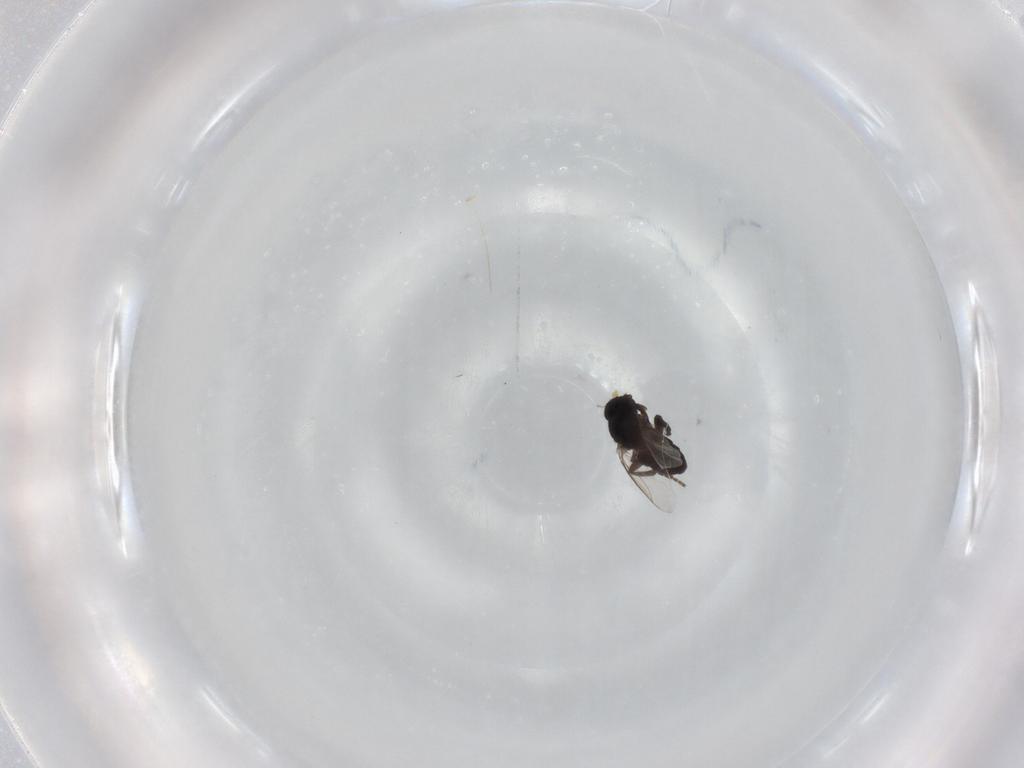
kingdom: Animalia
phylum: Arthropoda
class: Insecta
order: Diptera
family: Sphaeroceridae
